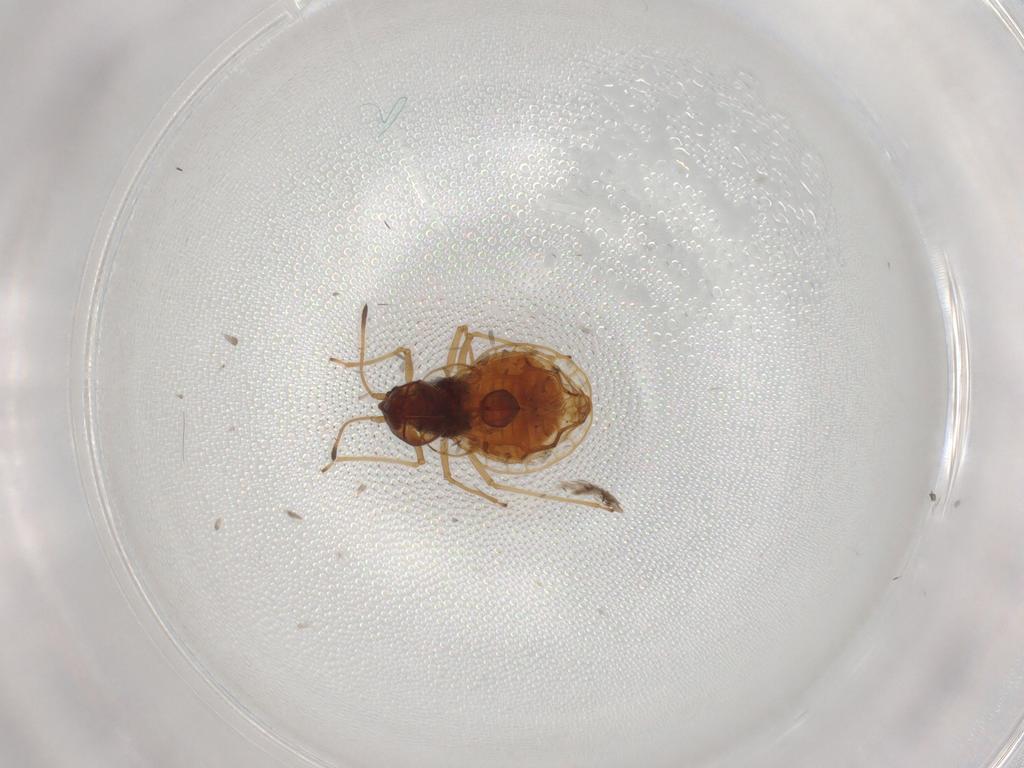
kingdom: Animalia
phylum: Arthropoda
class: Insecta
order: Hemiptera
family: Tingidae
